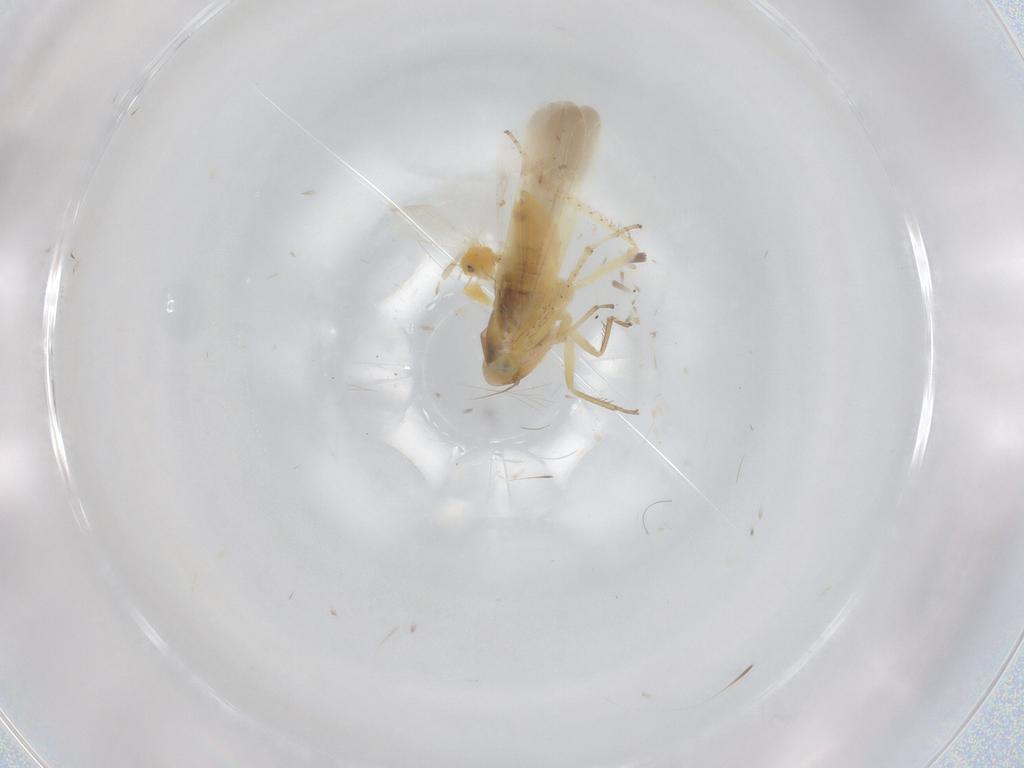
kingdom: Animalia
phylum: Arthropoda
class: Insecta
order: Hemiptera
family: Cicadellidae
